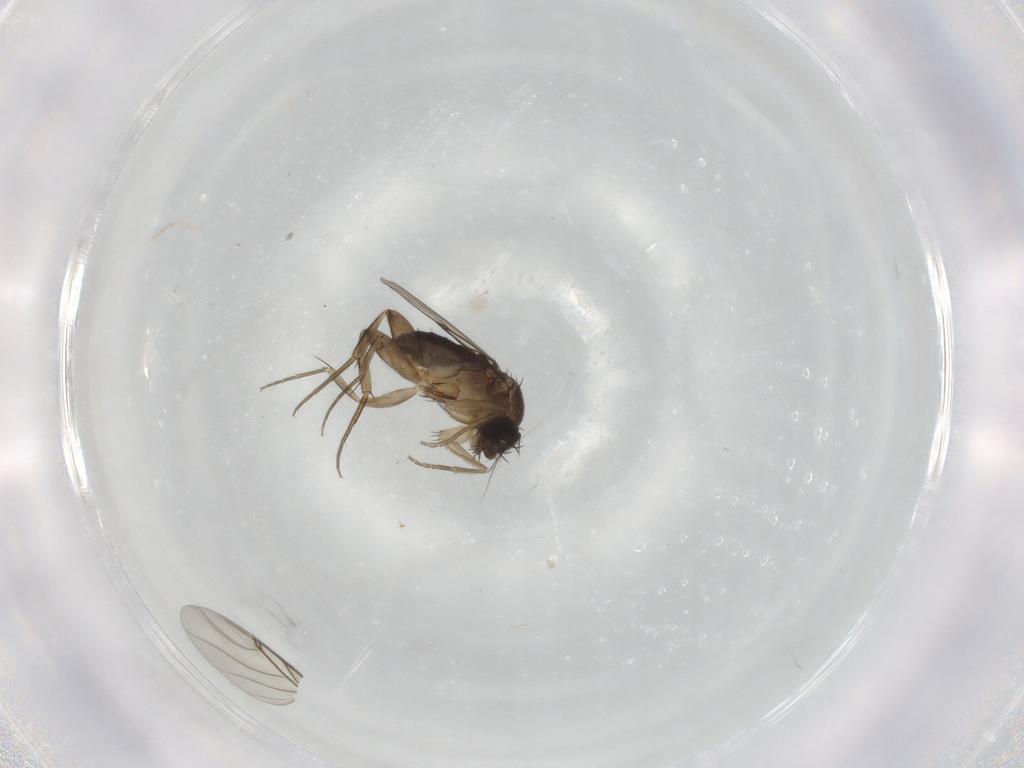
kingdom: Animalia
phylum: Arthropoda
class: Insecta
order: Diptera
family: Phoridae
